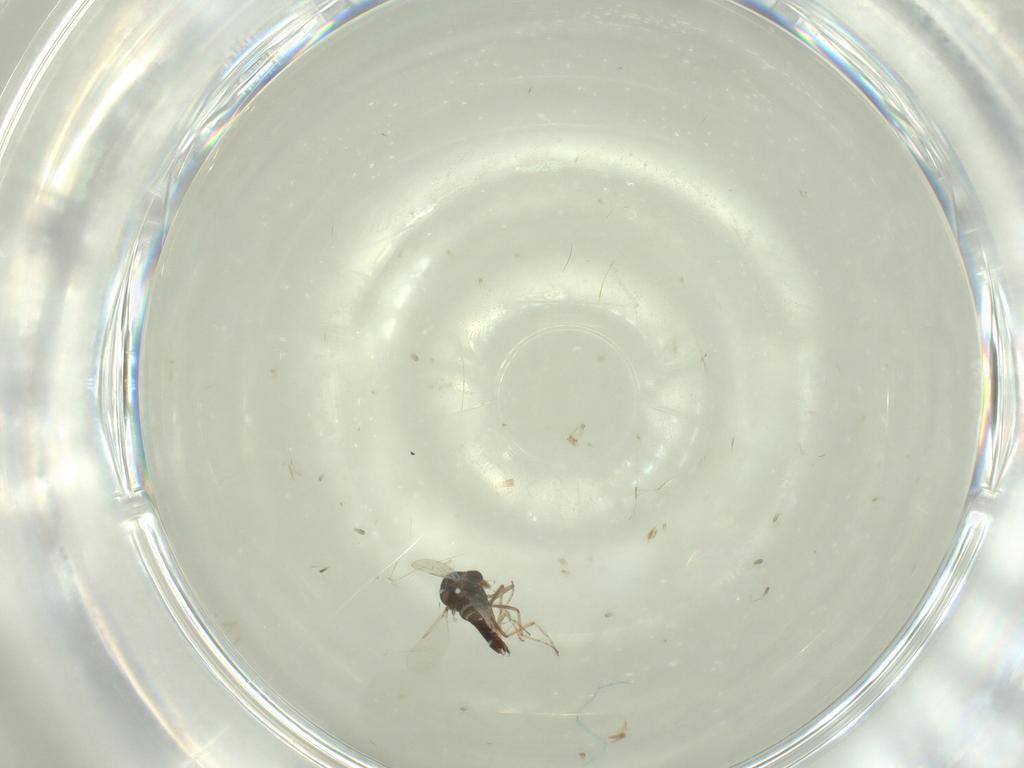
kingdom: Animalia
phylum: Arthropoda
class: Insecta
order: Diptera
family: Ceratopogonidae
